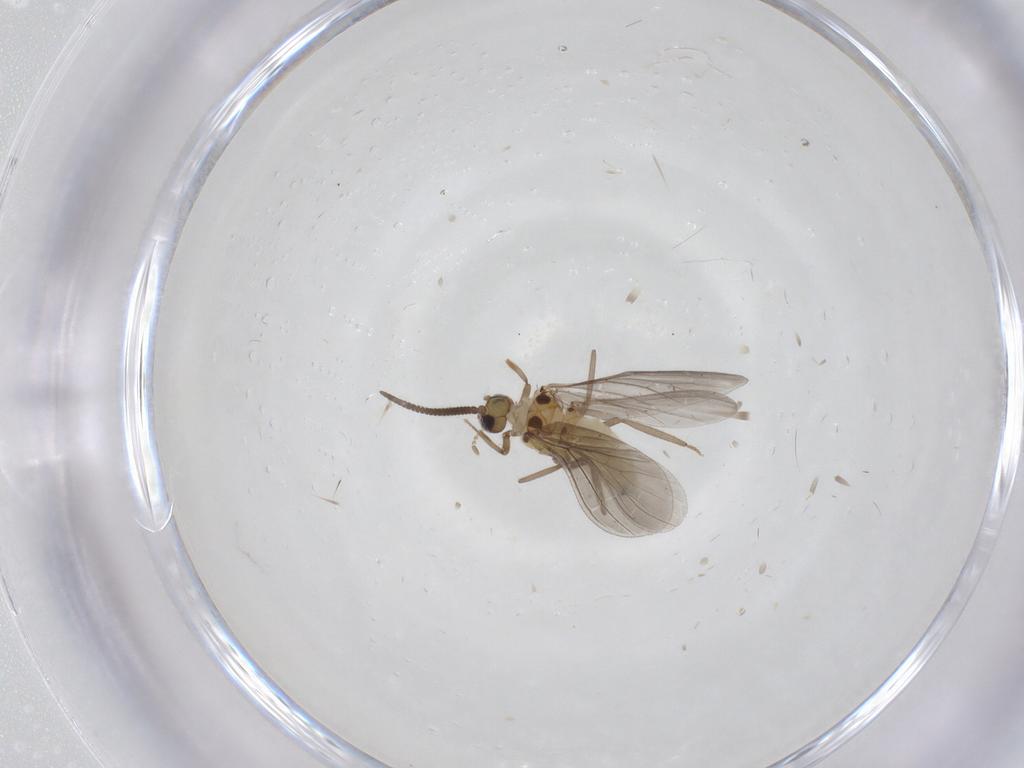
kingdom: Animalia
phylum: Arthropoda
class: Insecta
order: Neuroptera
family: Coniopterygidae
